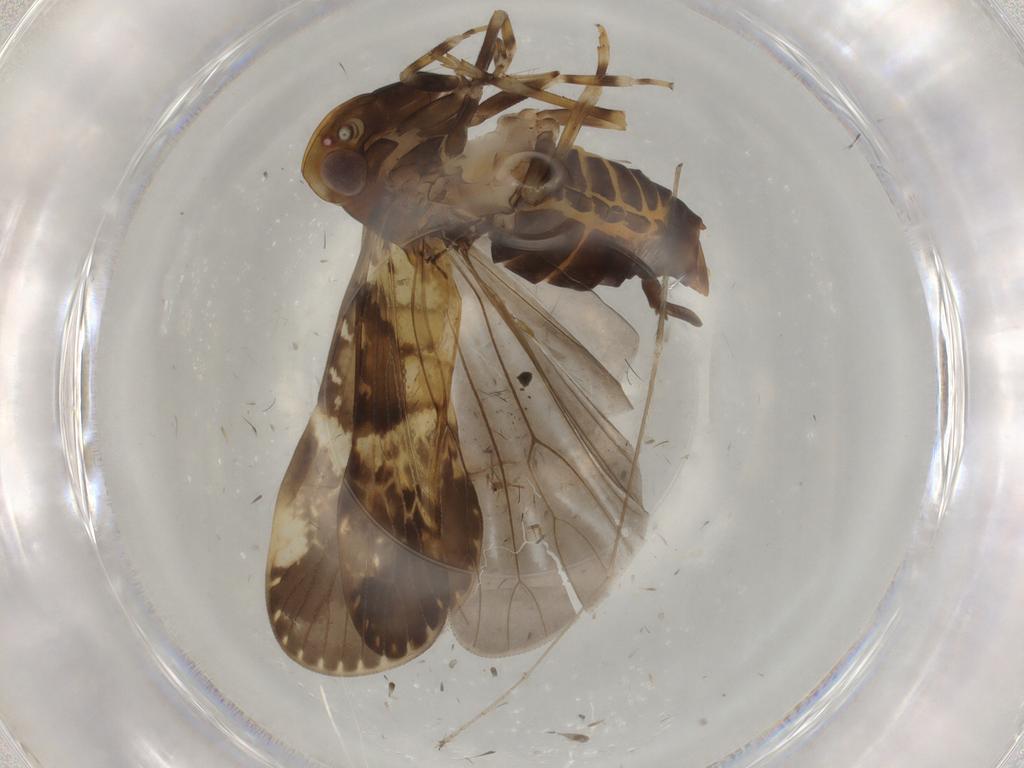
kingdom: Animalia
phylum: Arthropoda
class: Insecta
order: Hemiptera
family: Cixiidae
